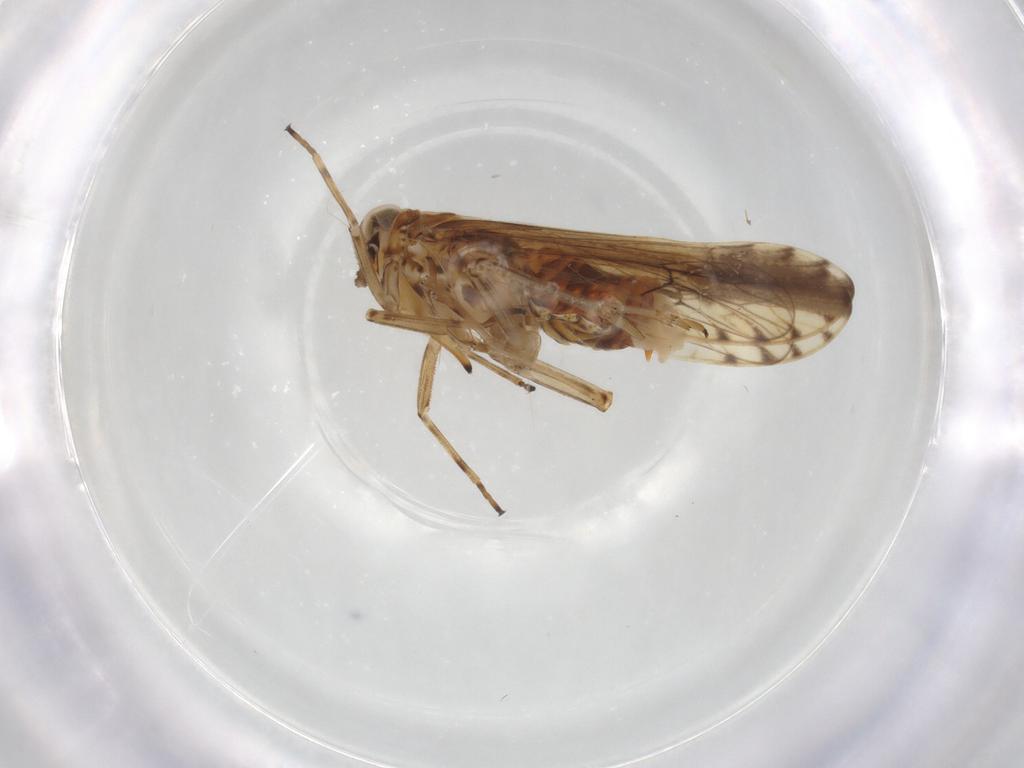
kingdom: Animalia
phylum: Arthropoda
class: Insecta
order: Hemiptera
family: Delphacidae
